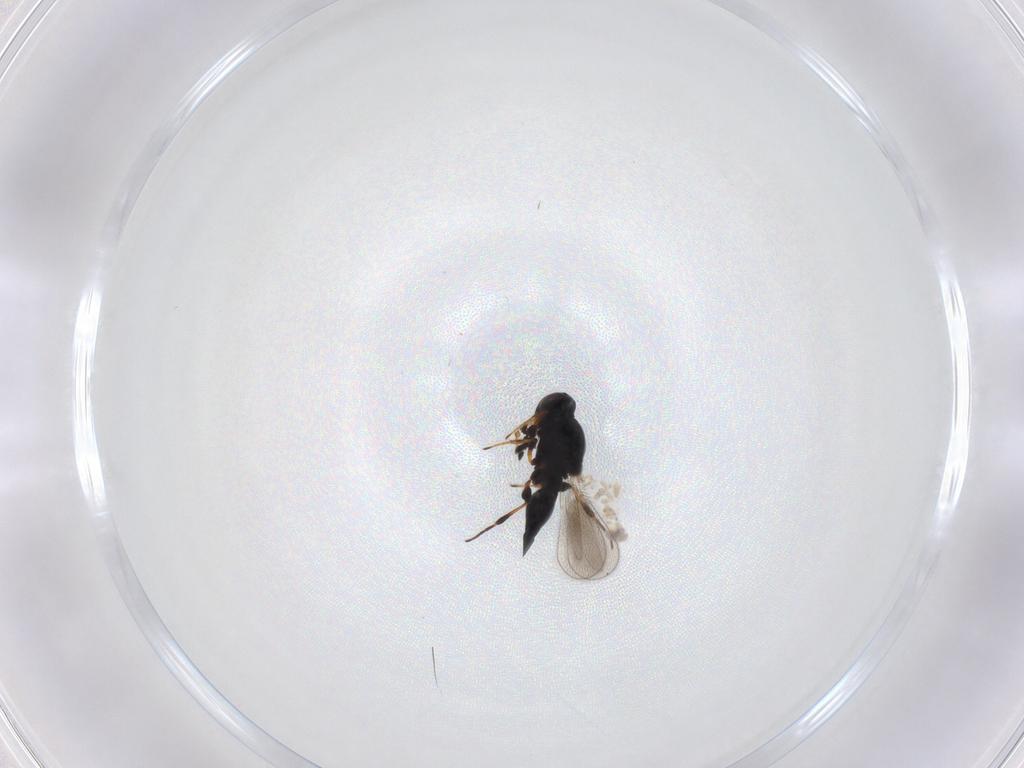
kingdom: Animalia
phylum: Arthropoda
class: Insecta
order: Hymenoptera
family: Platygastridae
